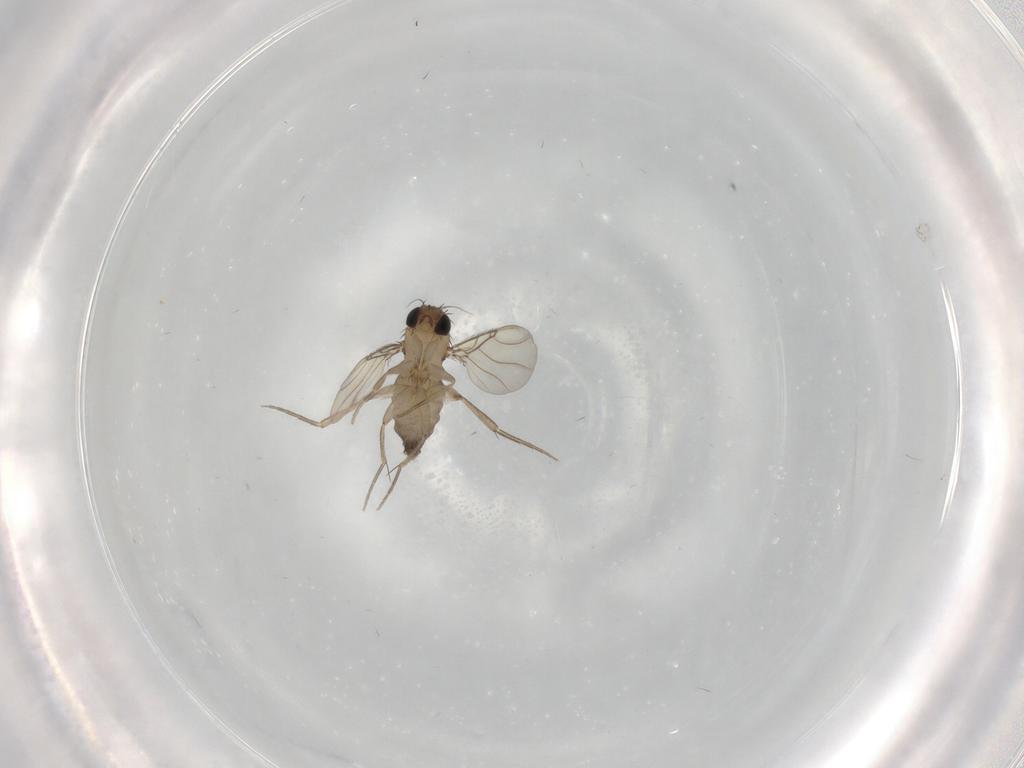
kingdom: Animalia
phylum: Arthropoda
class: Insecta
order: Diptera
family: Phoridae
